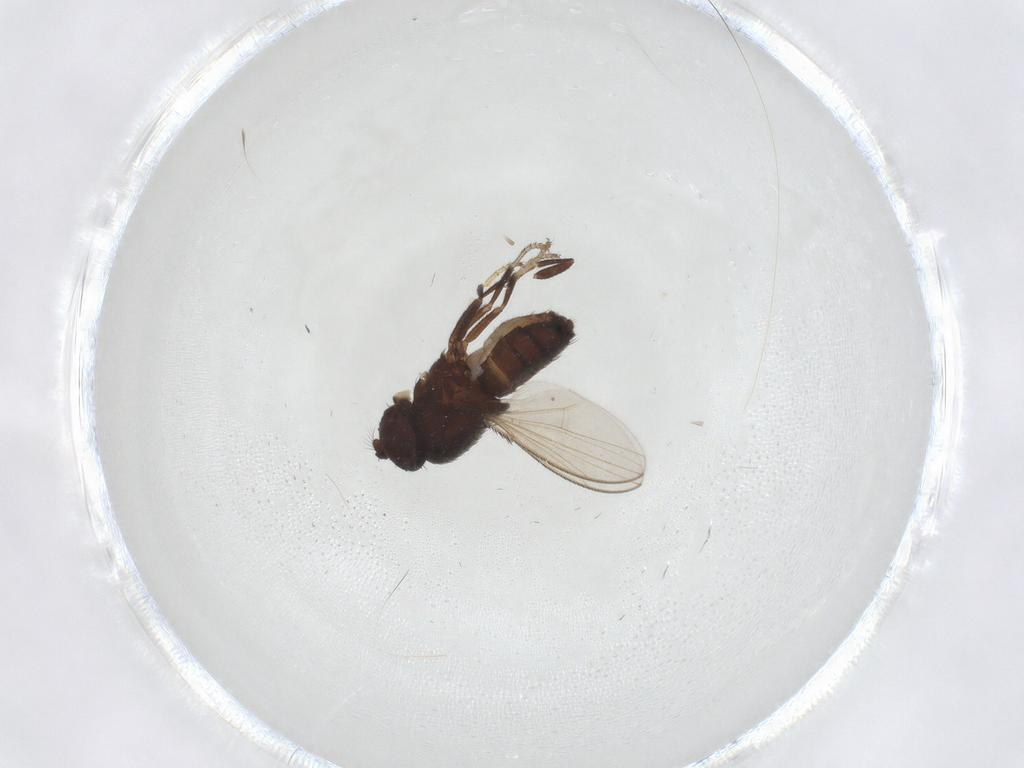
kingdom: Animalia
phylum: Arthropoda
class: Insecta
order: Diptera
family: Ephydridae
